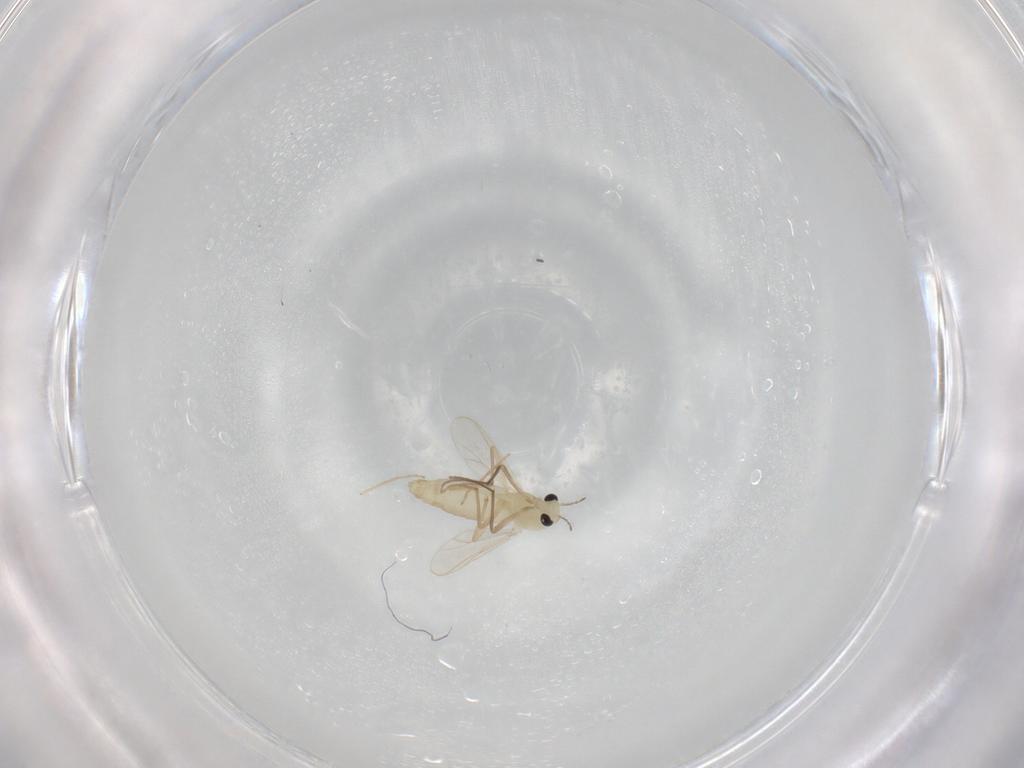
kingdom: Animalia
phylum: Arthropoda
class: Insecta
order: Diptera
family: Chironomidae
